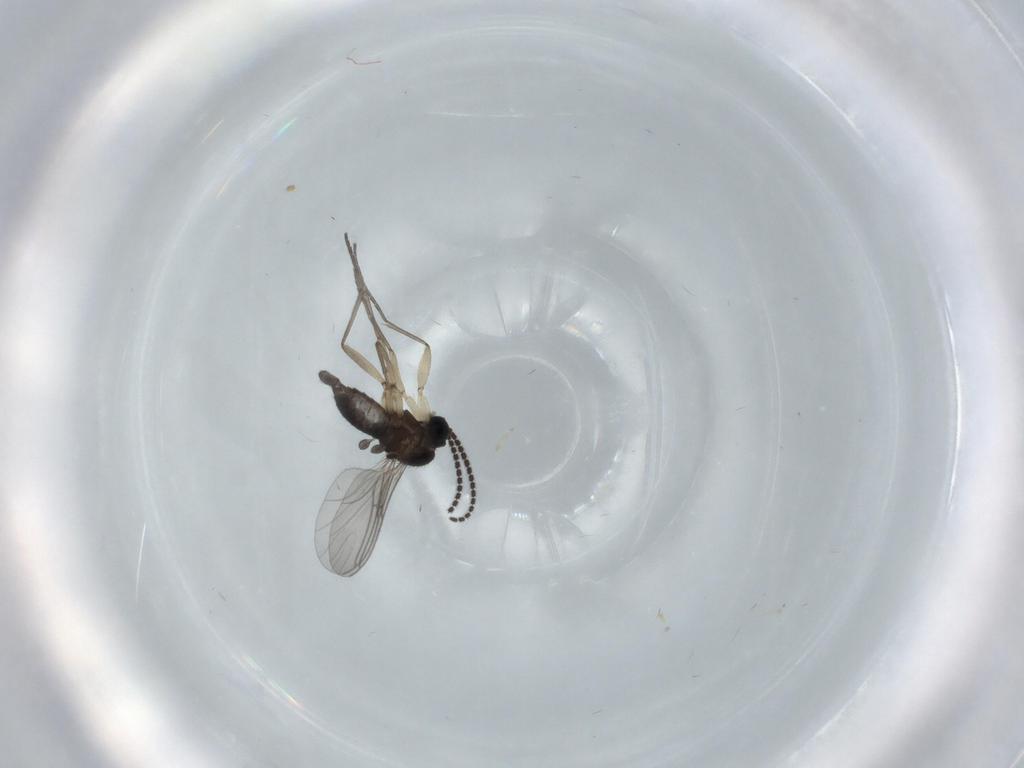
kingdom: Animalia
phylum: Arthropoda
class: Insecta
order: Diptera
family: Sciaridae
